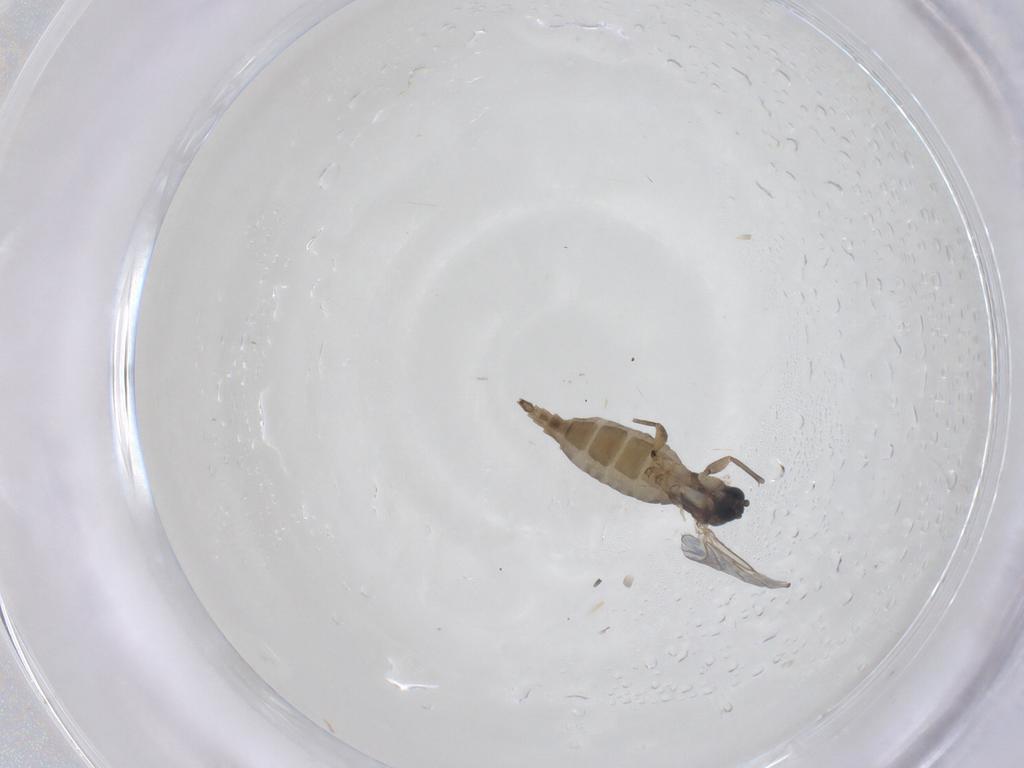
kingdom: Animalia
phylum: Arthropoda
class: Insecta
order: Diptera
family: Sciaridae
